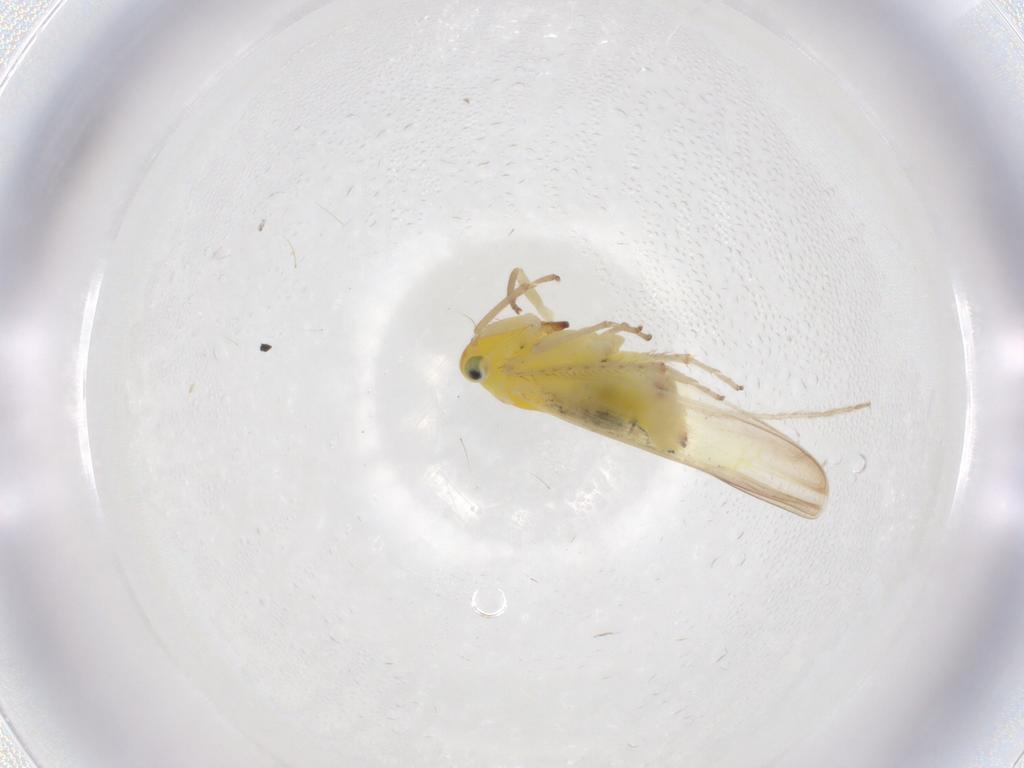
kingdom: Animalia
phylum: Arthropoda
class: Insecta
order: Hemiptera
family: Cicadellidae
